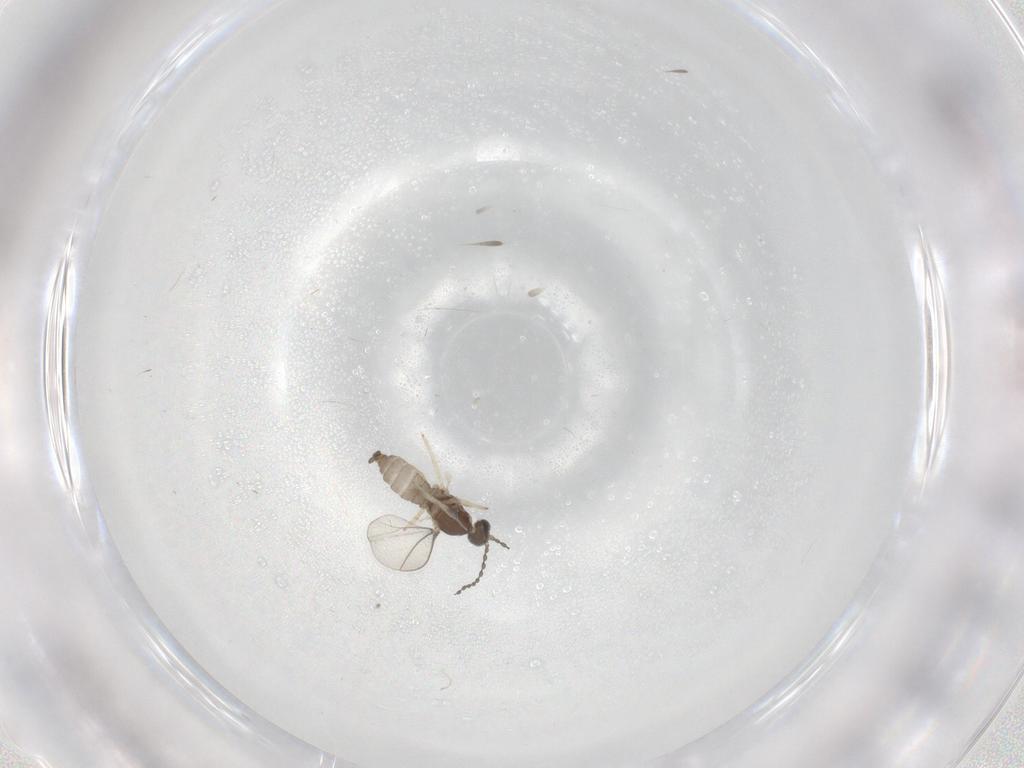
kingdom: Animalia
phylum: Arthropoda
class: Insecta
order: Diptera
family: Cecidomyiidae
